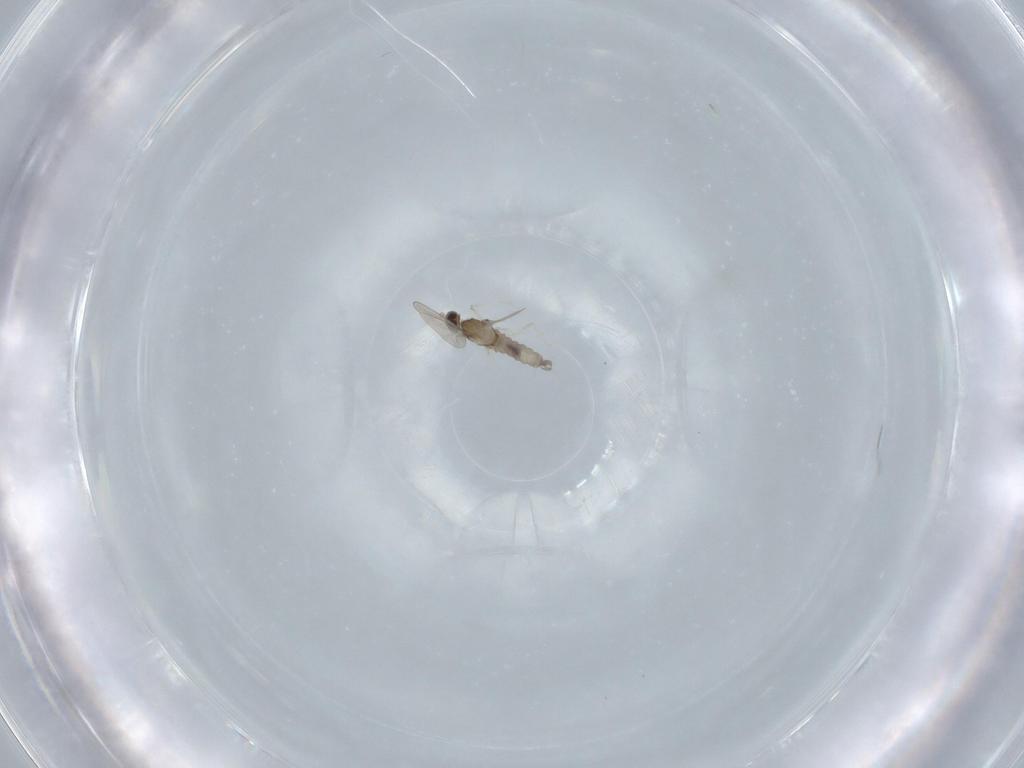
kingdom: Animalia
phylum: Arthropoda
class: Insecta
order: Diptera
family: Cecidomyiidae
